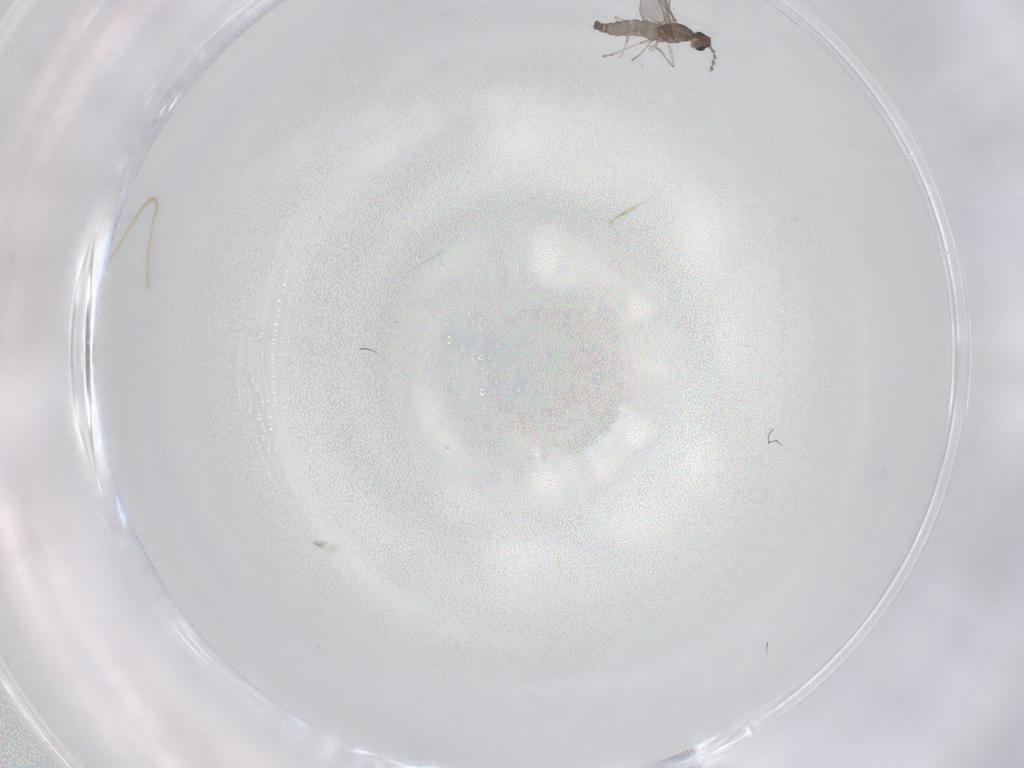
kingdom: Animalia
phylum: Arthropoda
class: Insecta
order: Diptera
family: Cecidomyiidae
